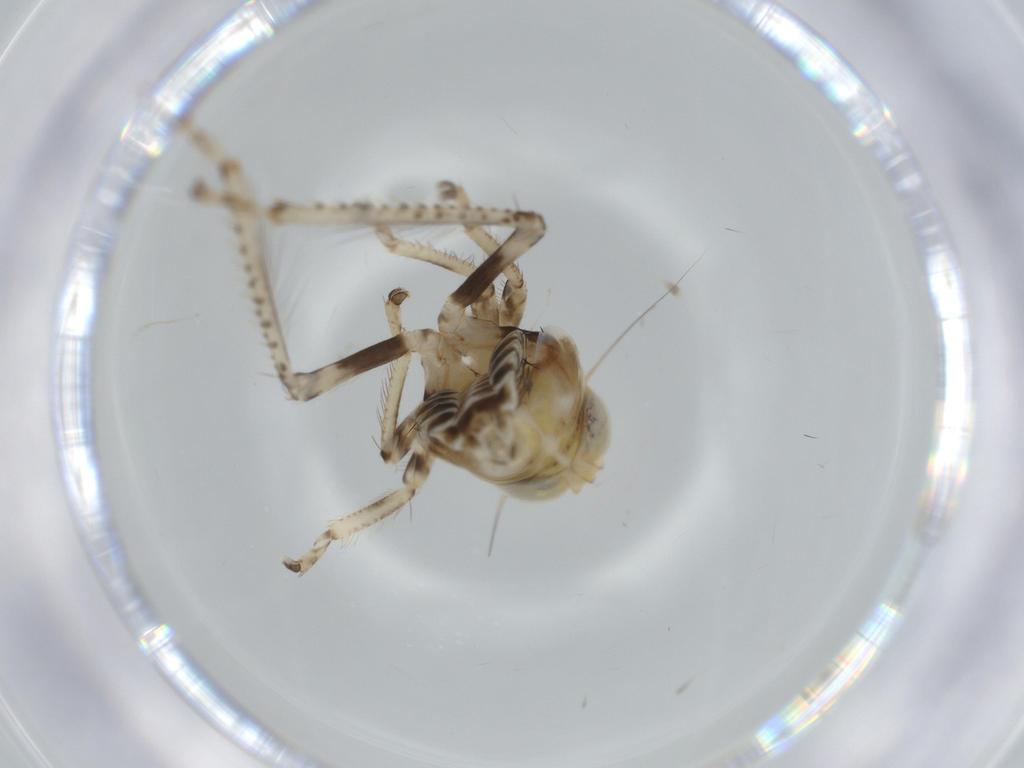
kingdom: Animalia
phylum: Arthropoda
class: Insecta
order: Hemiptera
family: Cicadellidae
